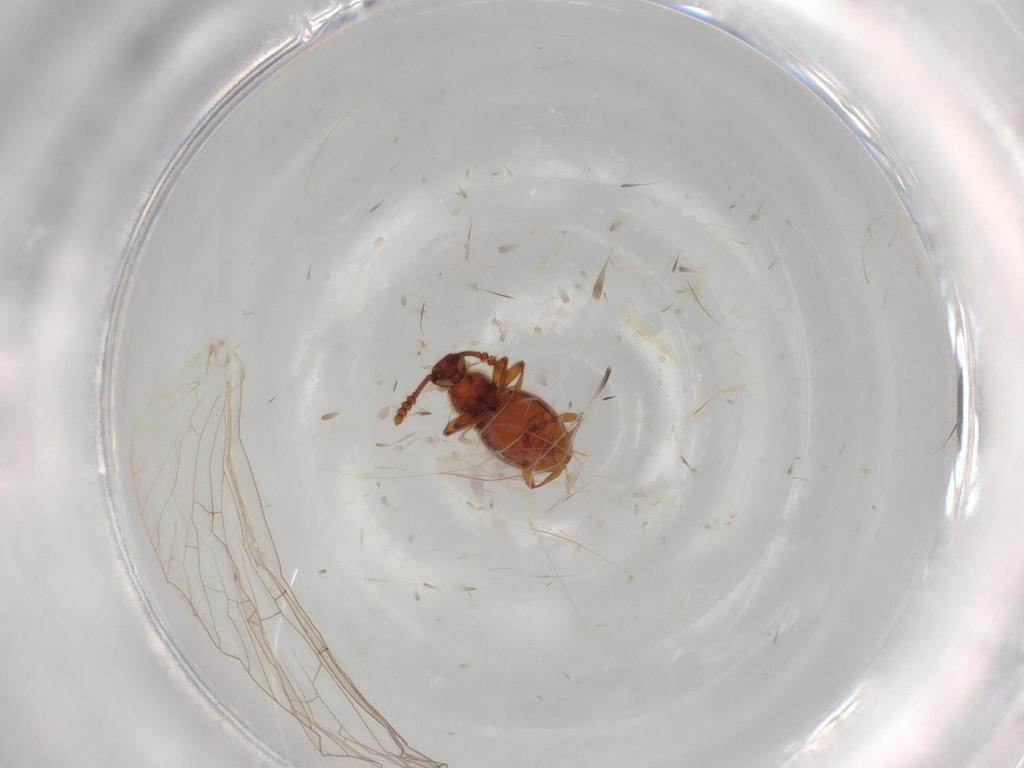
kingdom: Animalia
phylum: Arthropoda
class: Insecta
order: Coleoptera
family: Staphylinidae
